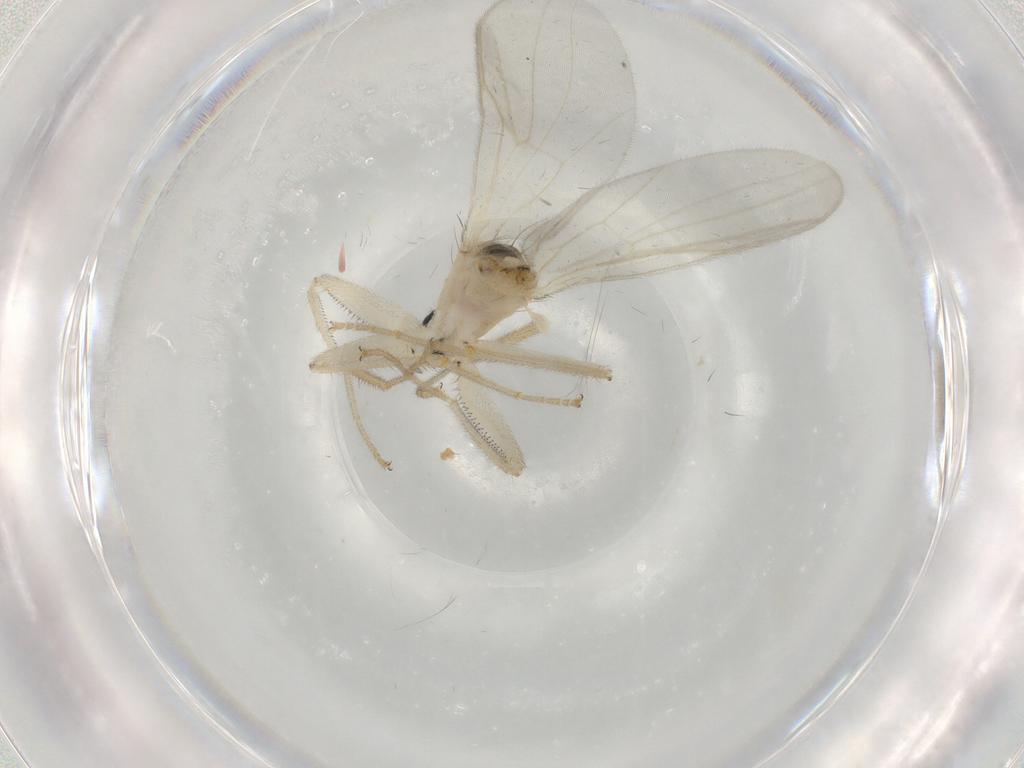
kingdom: Animalia
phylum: Arthropoda
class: Insecta
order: Diptera
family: Hybotidae
